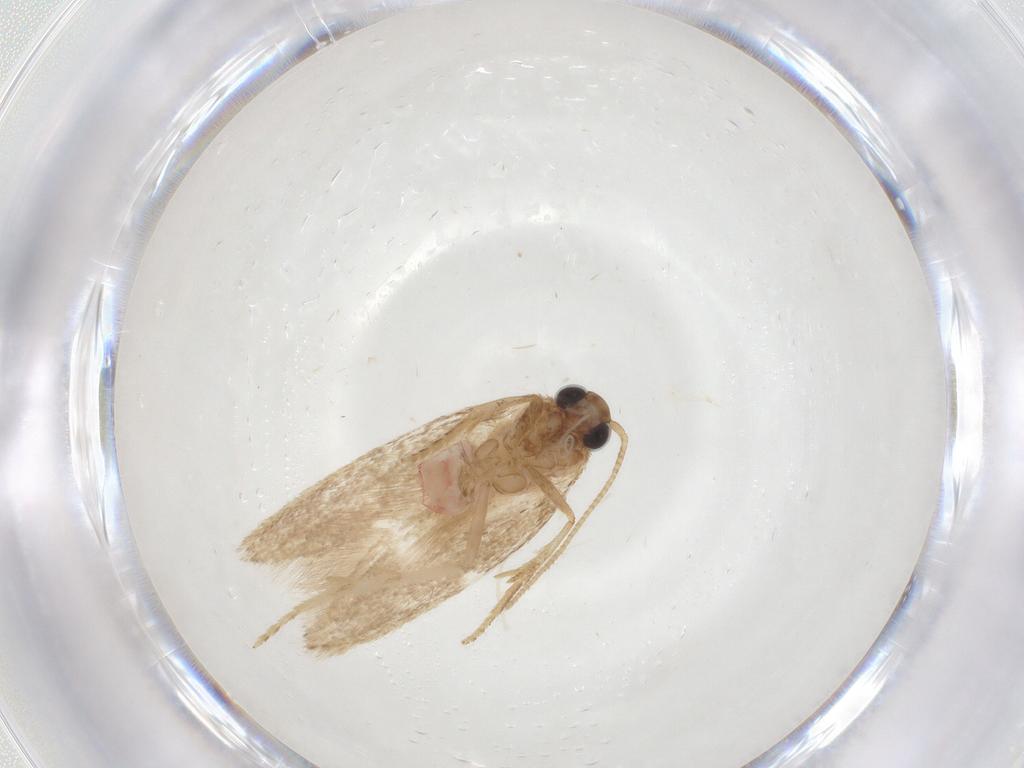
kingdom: Animalia
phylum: Arthropoda
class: Insecta
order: Lepidoptera
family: Autostichidae
